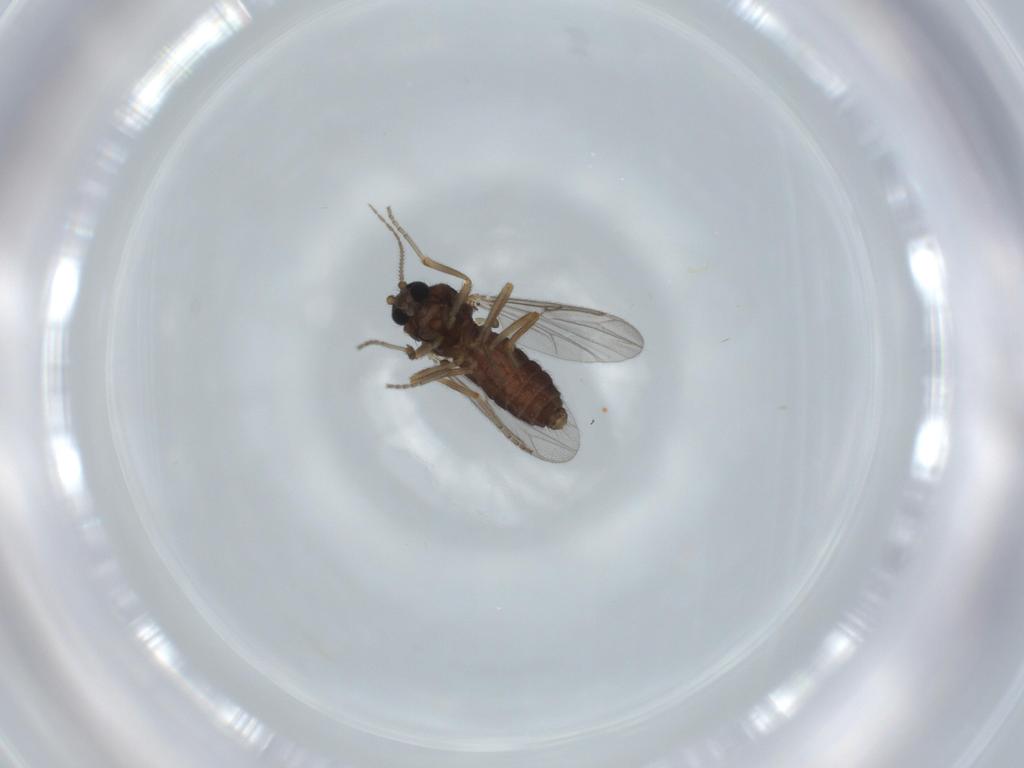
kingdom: Animalia
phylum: Arthropoda
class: Insecta
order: Diptera
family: Ceratopogonidae
